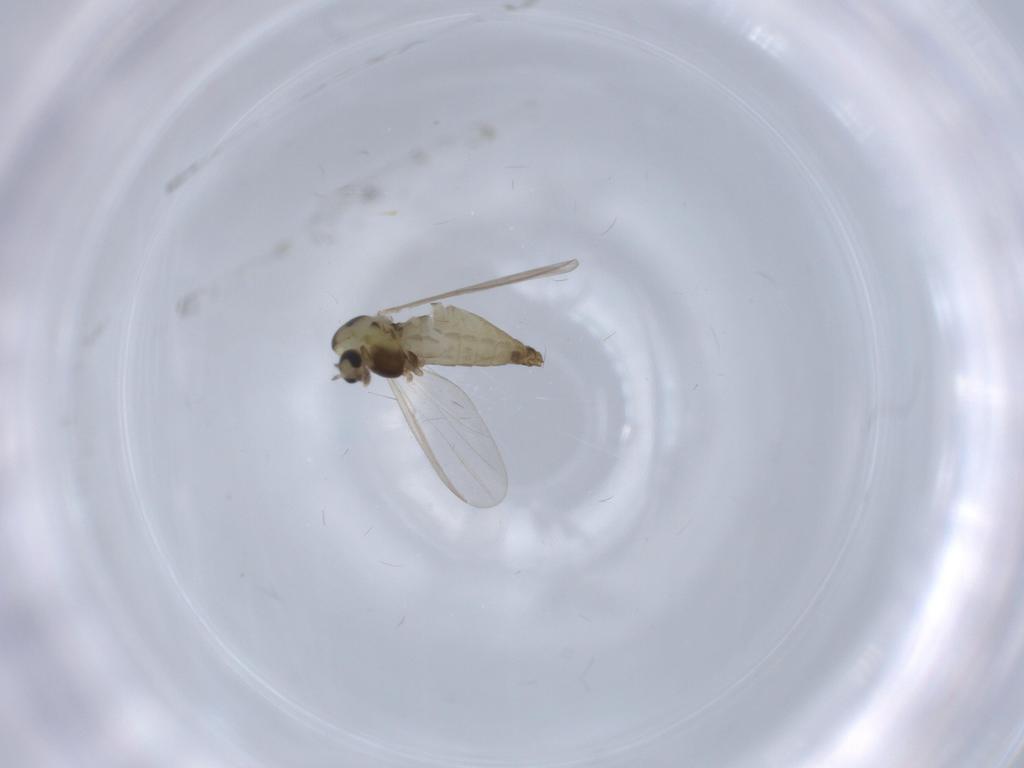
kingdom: Animalia
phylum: Arthropoda
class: Insecta
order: Diptera
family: Chironomidae
